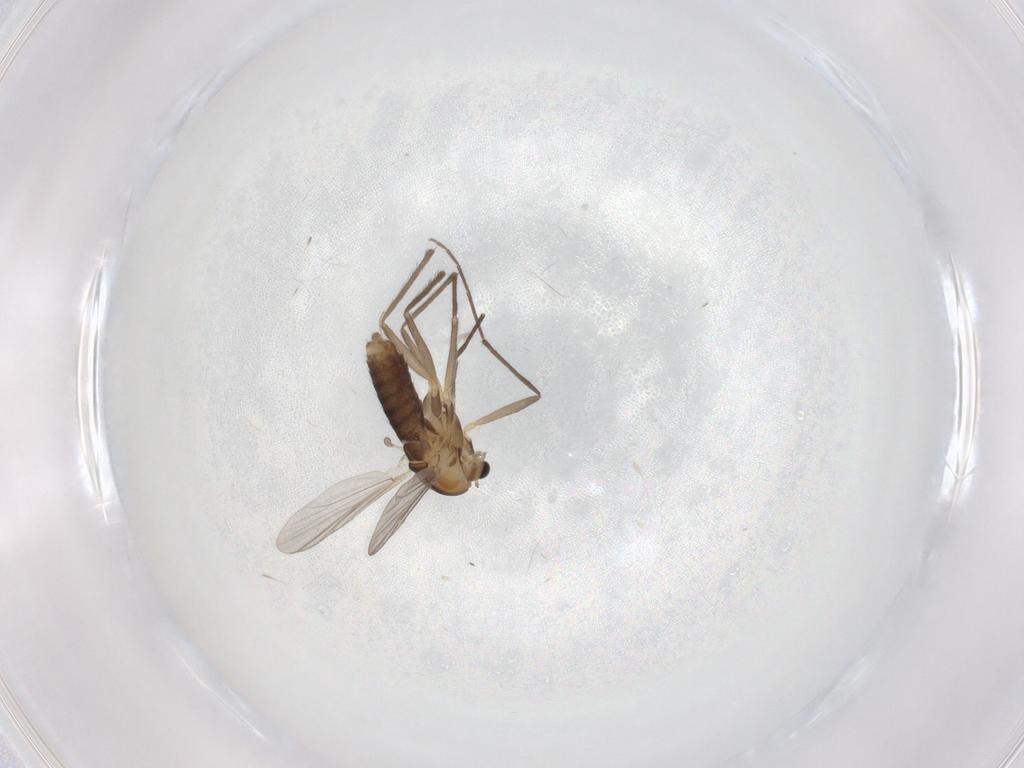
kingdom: Animalia
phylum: Arthropoda
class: Insecta
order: Diptera
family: Chironomidae
